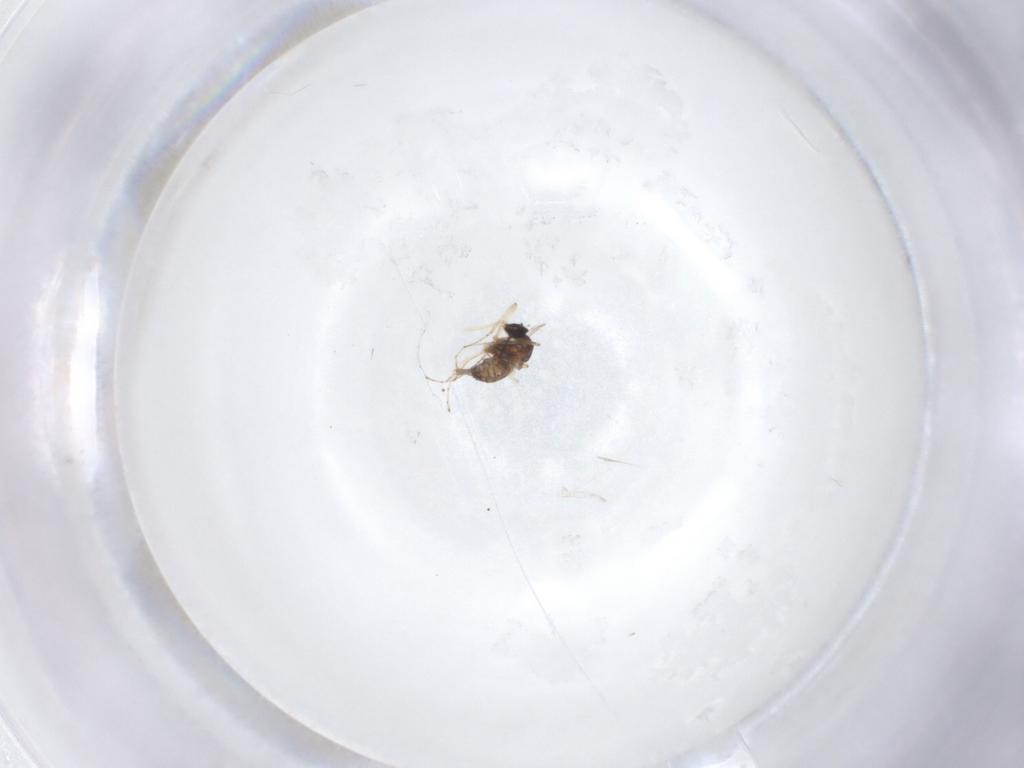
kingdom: Animalia
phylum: Arthropoda
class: Insecta
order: Diptera
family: Cecidomyiidae
